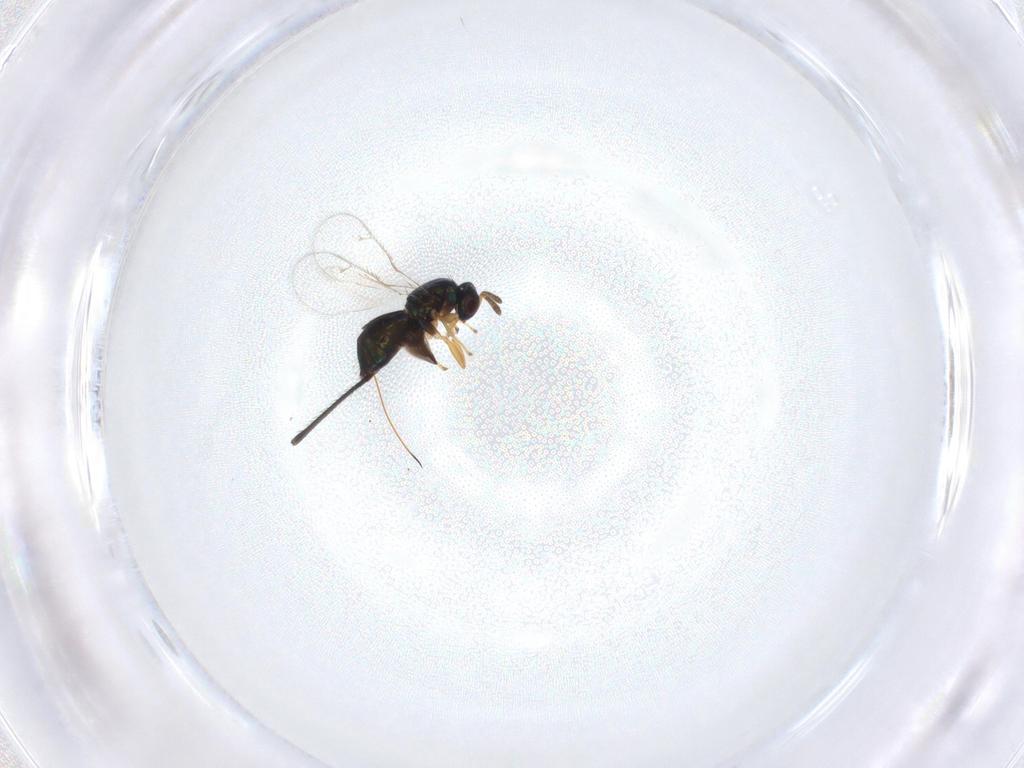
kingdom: Animalia
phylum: Arthropoda
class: Insecta
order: Hymenoptera
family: Torymidae
